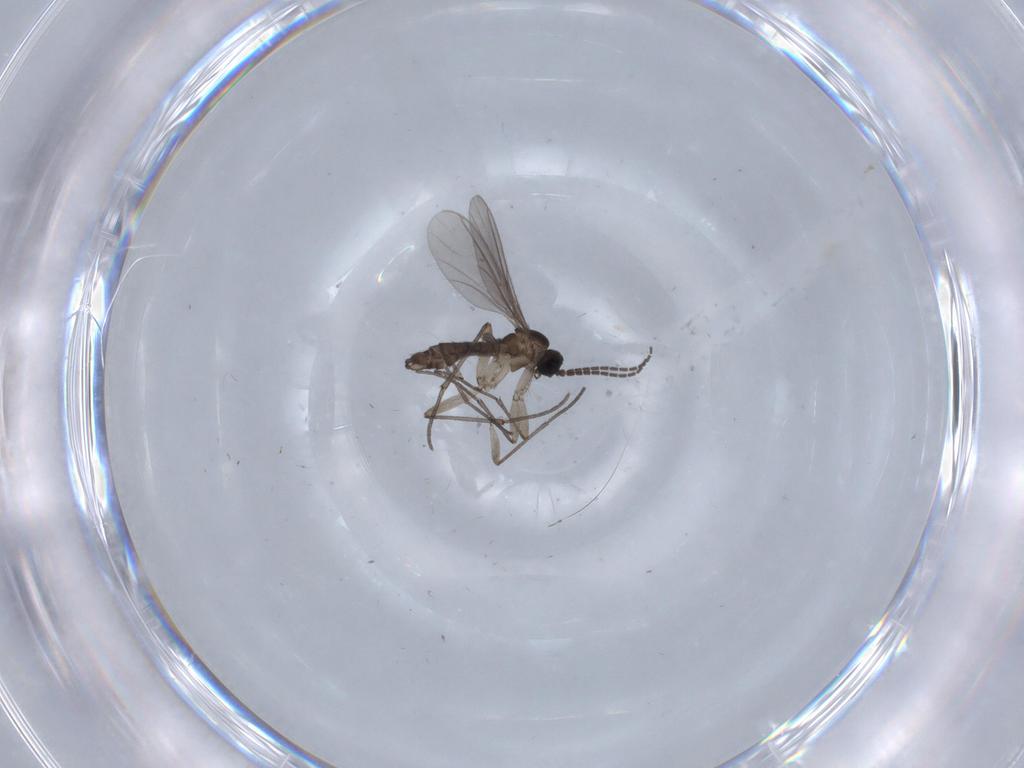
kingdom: Animalia
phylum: Arthropoda
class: Insecta
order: Diptera
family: Sciaridae
